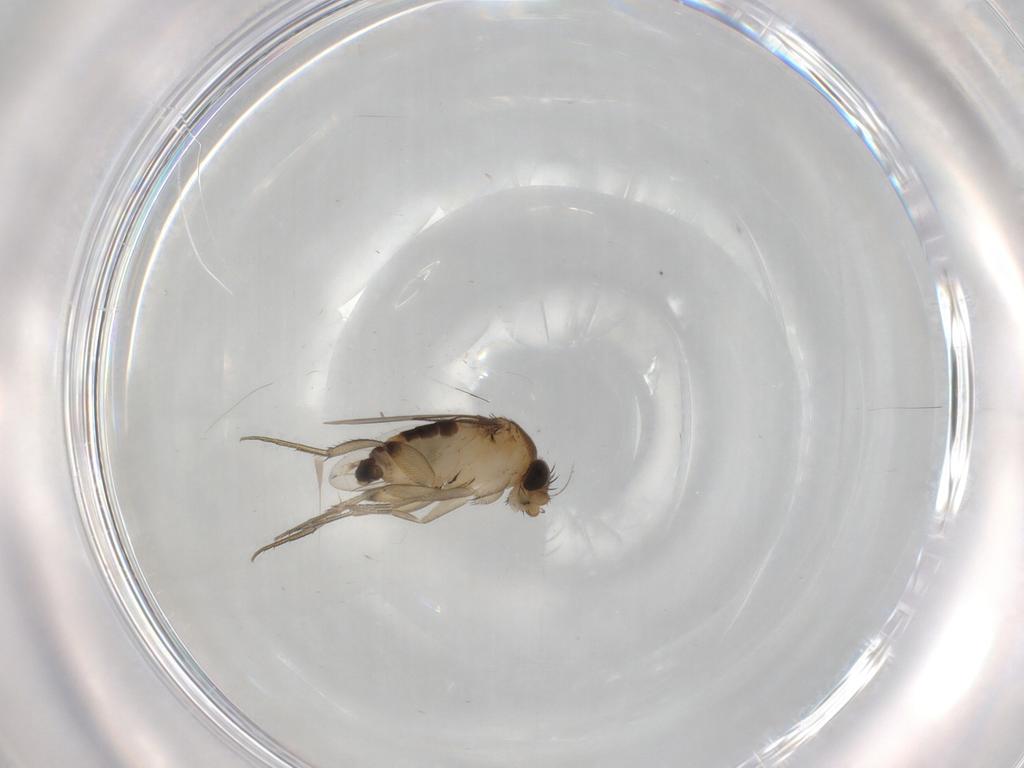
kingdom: Animalia
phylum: Arthropoda
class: Insecta
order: Diptera
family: Phoridae
